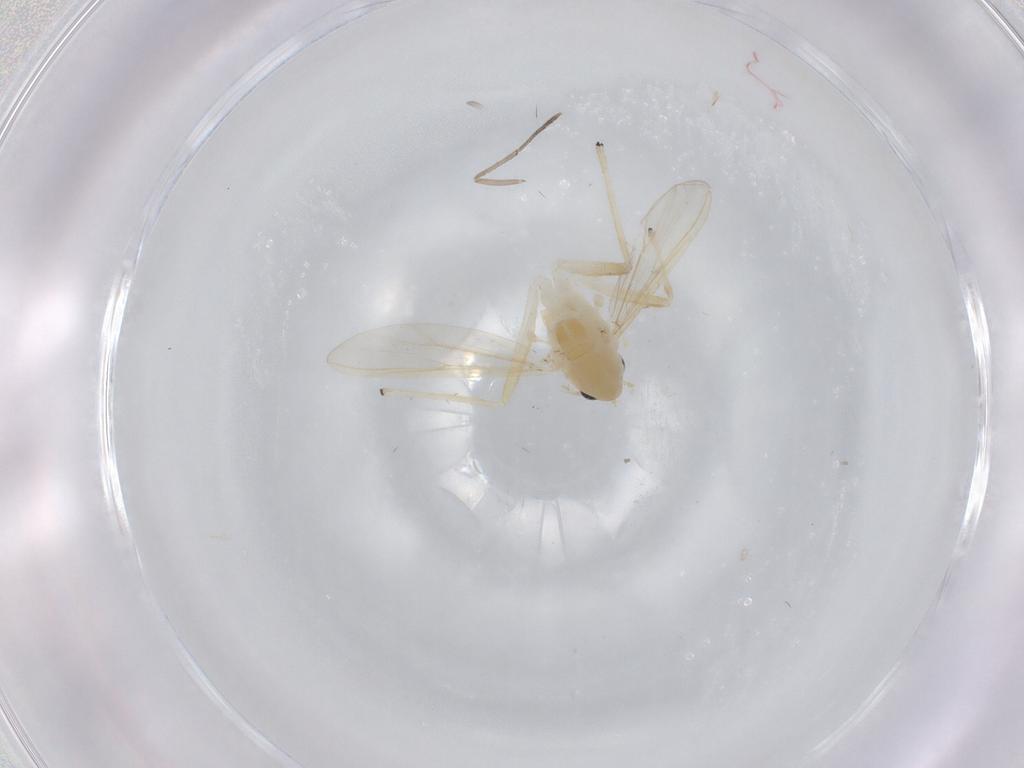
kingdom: Animalia
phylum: Arthropoda
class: Insecta
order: Diptera
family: Chironomidae
